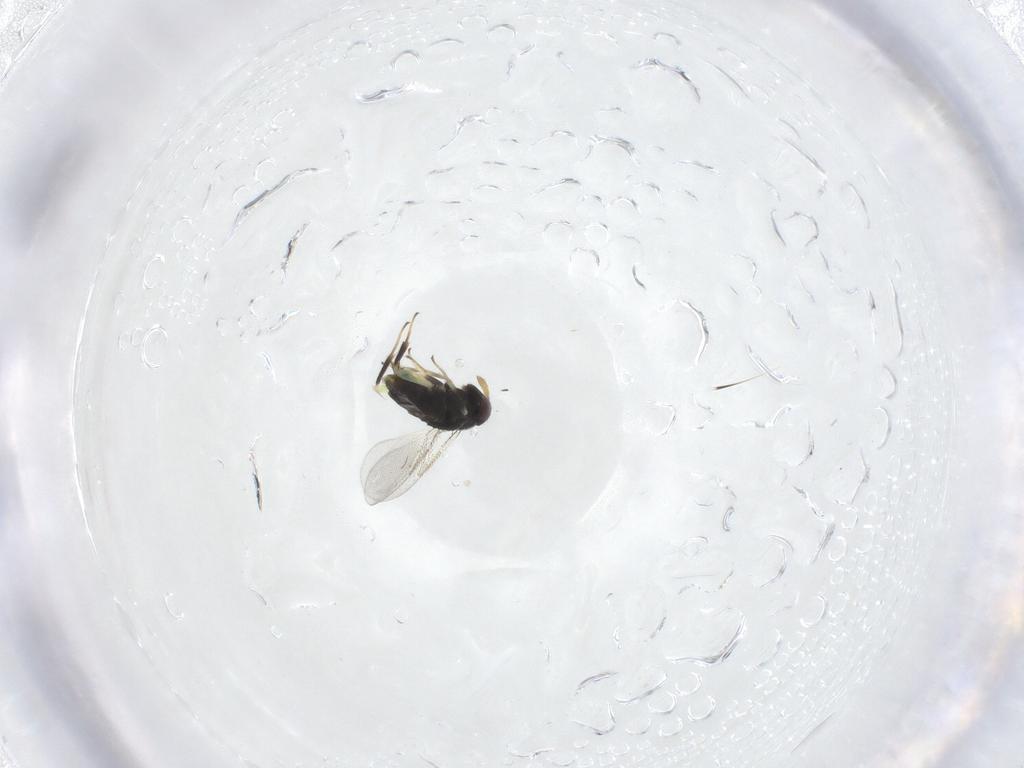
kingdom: Animalia
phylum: Arthropoda
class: Insecta
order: Hymenoptera
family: Aphelinidae
